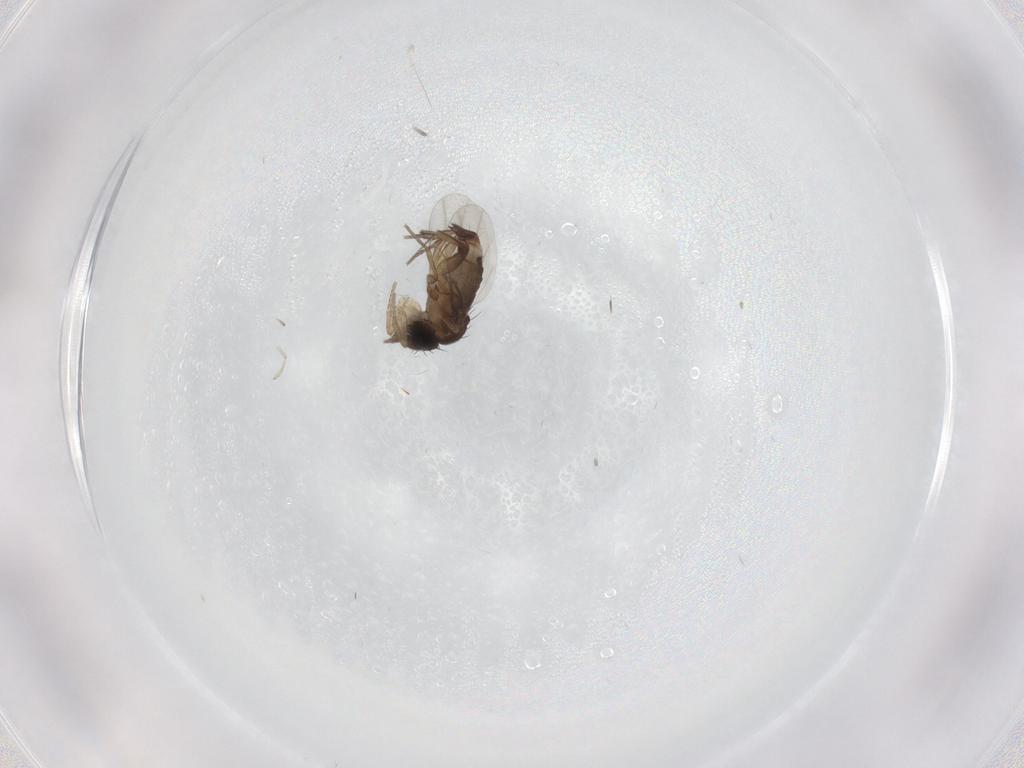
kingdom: Animalia
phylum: Arthropoda
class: Insecta
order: Diptera
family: Phoridae
